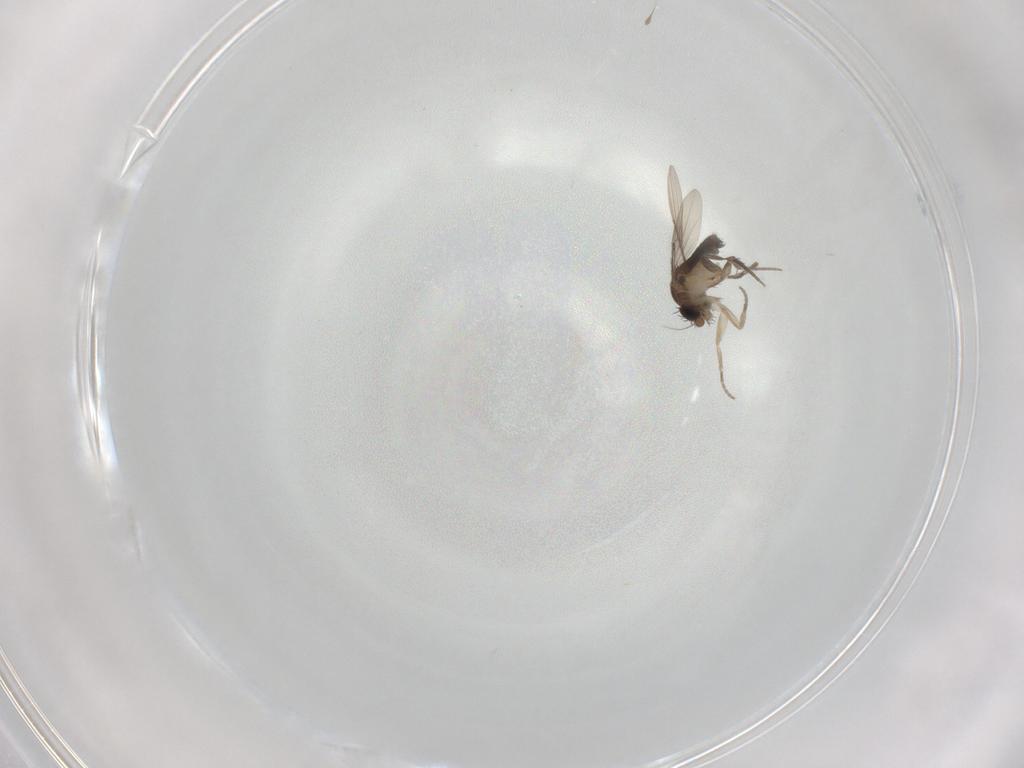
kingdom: Animalia
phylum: Arthropoda
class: Insecta
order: Diptera
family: Phoridae
